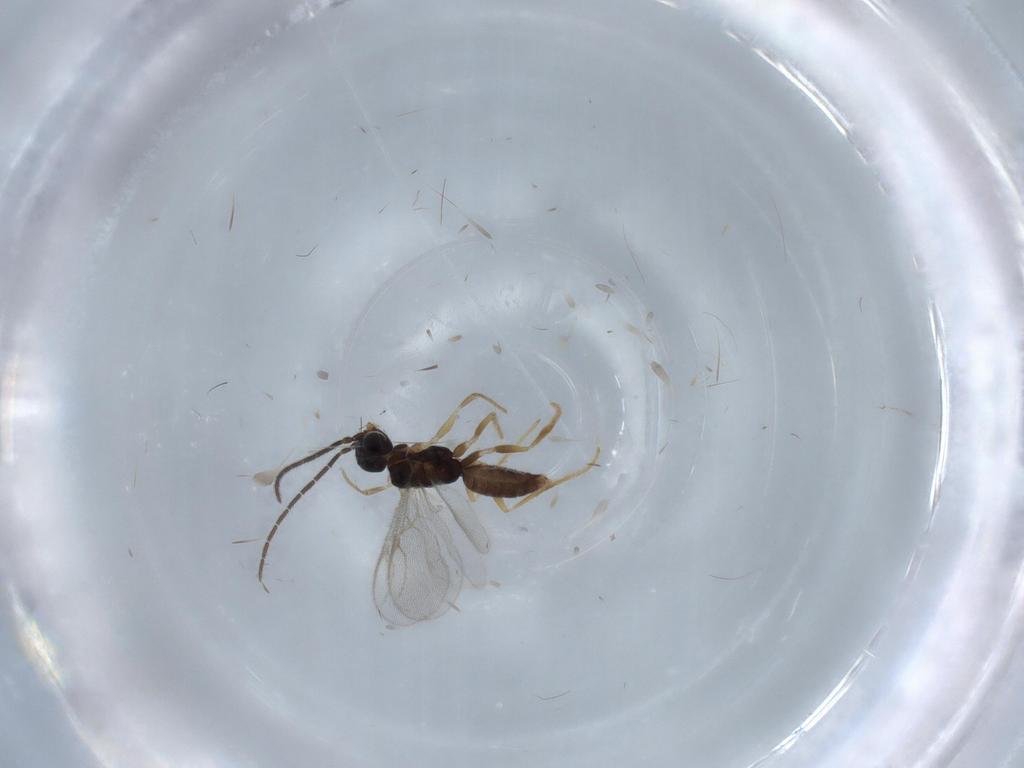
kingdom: Animalia
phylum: Arthropoda
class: Insecta
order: Hymenoptera
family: Dryinidae
